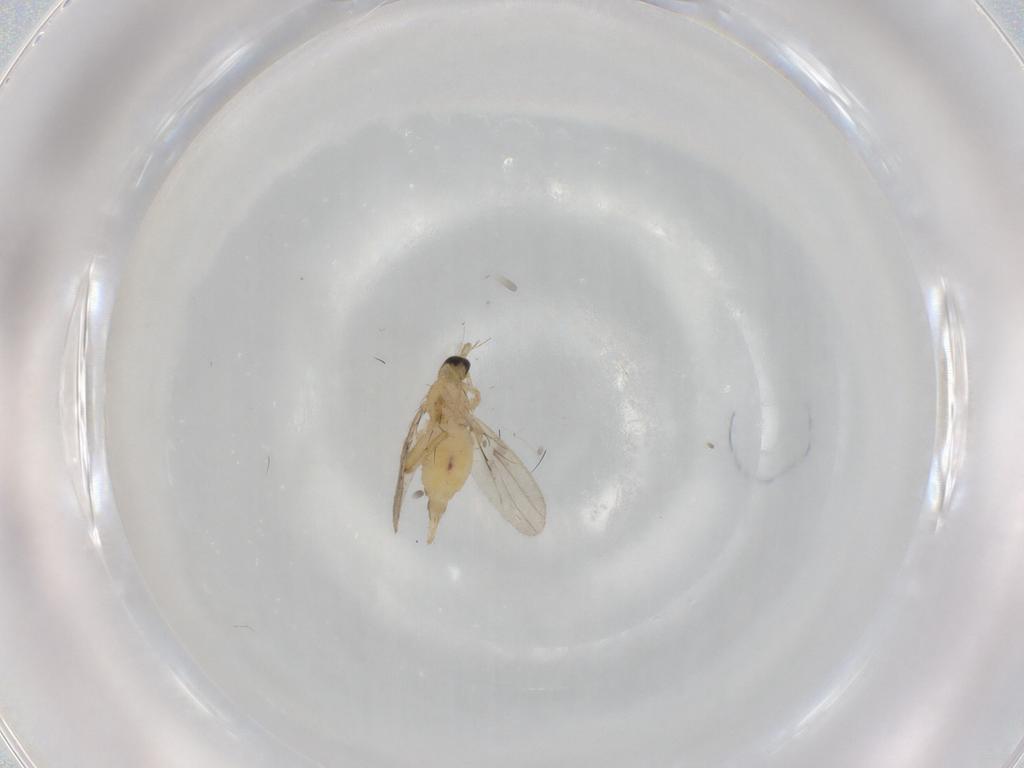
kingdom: Animalia
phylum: Arthropoda
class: Insecta
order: Diptera
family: Hybotidae
